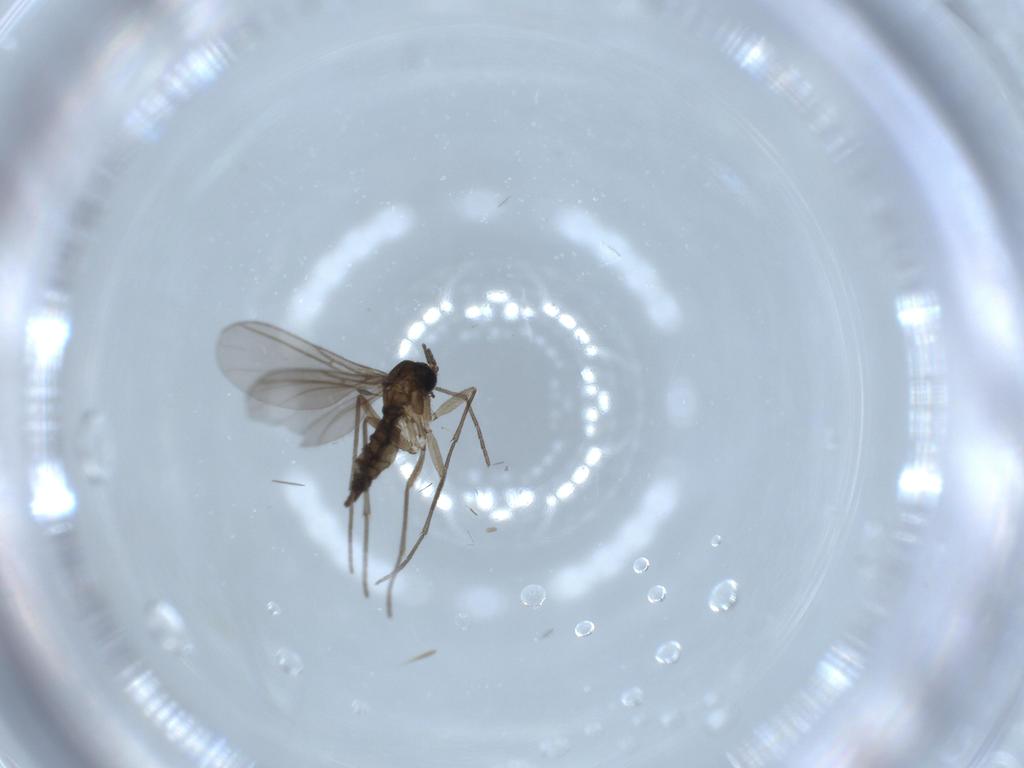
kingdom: Animalia
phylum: Arthropoda
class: Insecta
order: Diptera
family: Sciaridae
